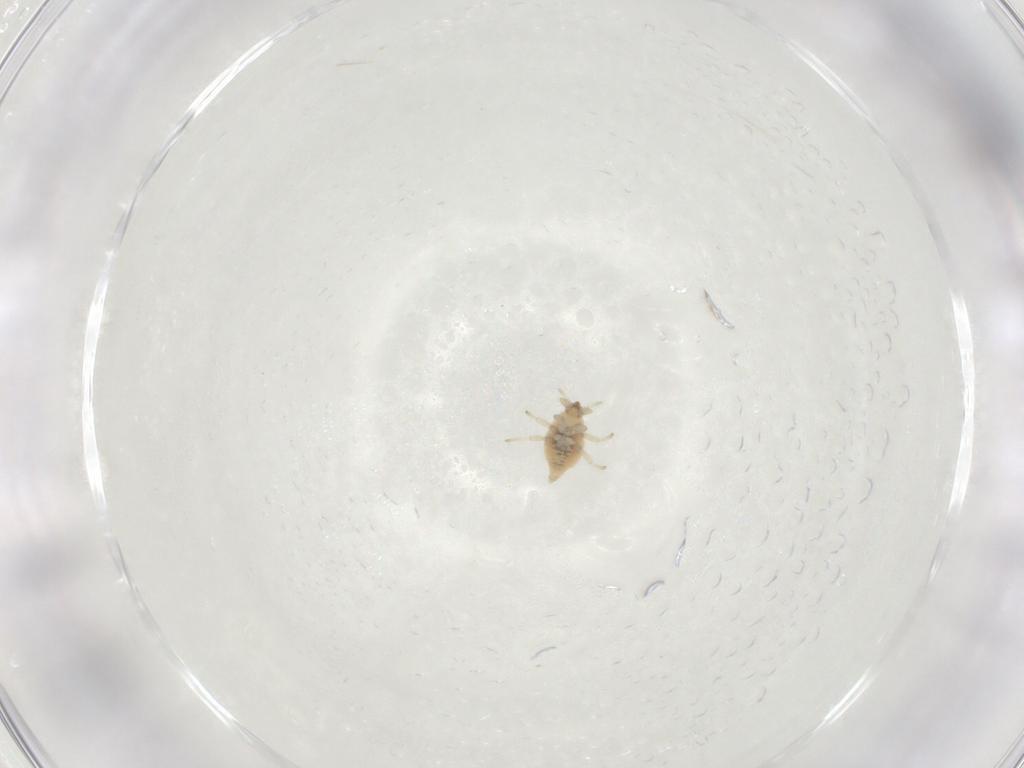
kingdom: Animalia
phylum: Arthropoda
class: Insecta
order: Neuroptera
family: Coniopterygidae
